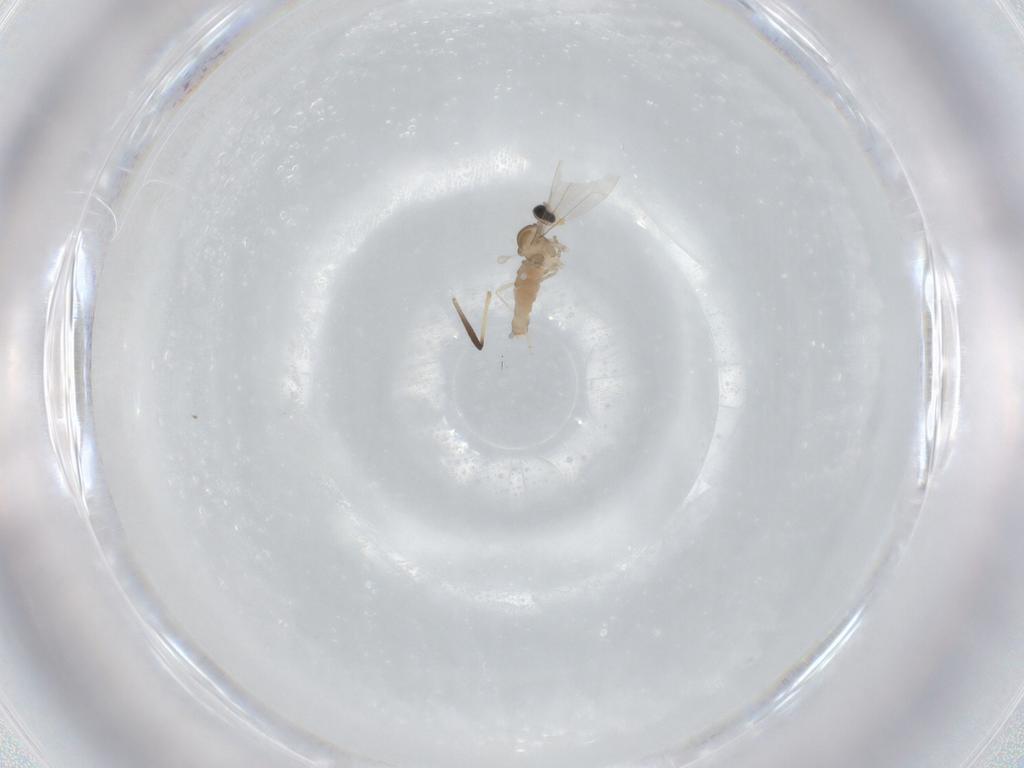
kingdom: Animalia
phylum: Arthropoda
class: Insecta
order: Diptera
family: Cecidomyiidae
